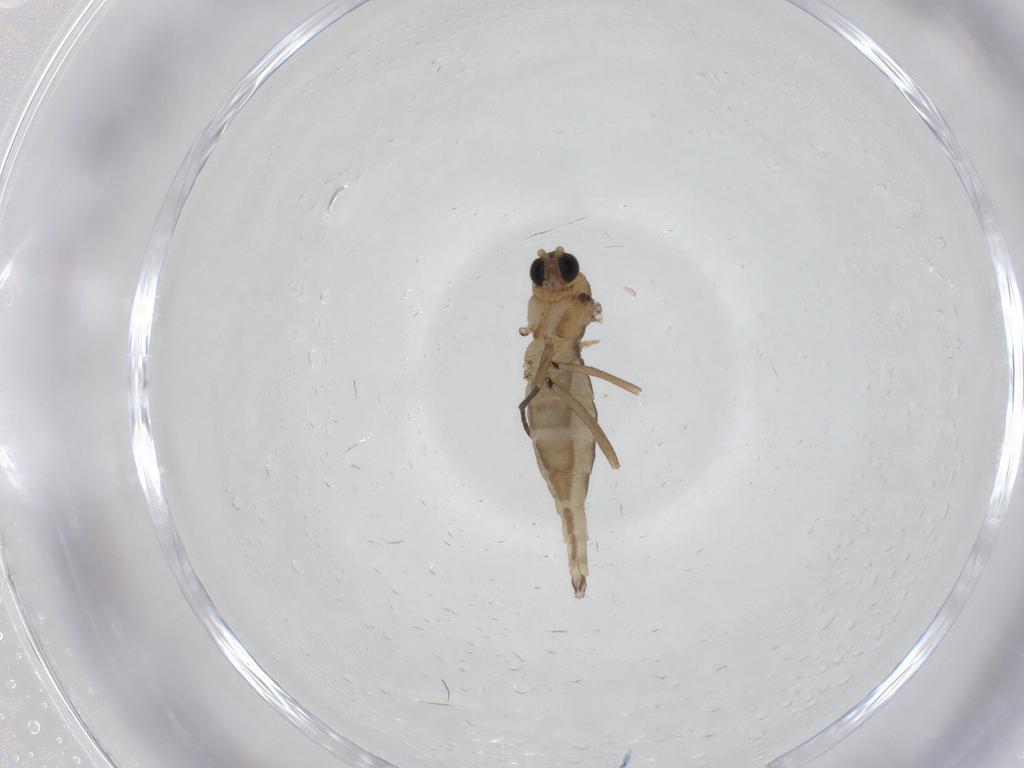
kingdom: Animalia
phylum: Arthropoda
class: Insecta
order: Diptera
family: Sciaridae
